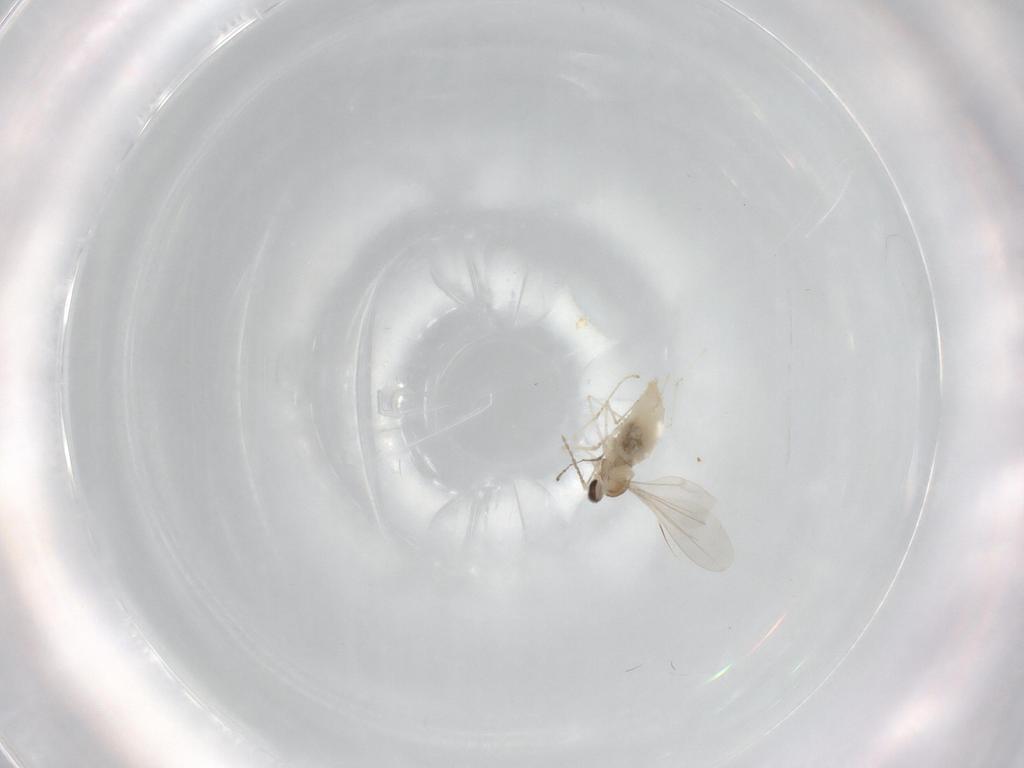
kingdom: Animalia
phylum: Arthropoda
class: Insecta
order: Diptera
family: Cecidomyiidae
